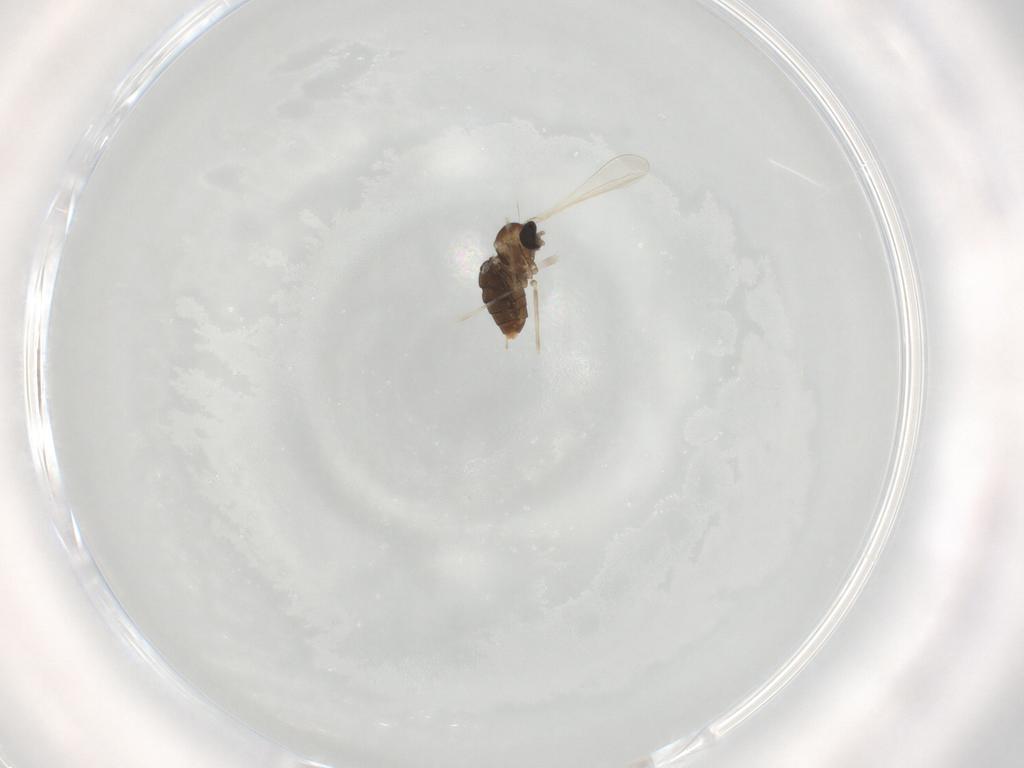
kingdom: Animalia
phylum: Arthropoda
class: Insecta
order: Diptera
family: Cecidomyiidae
